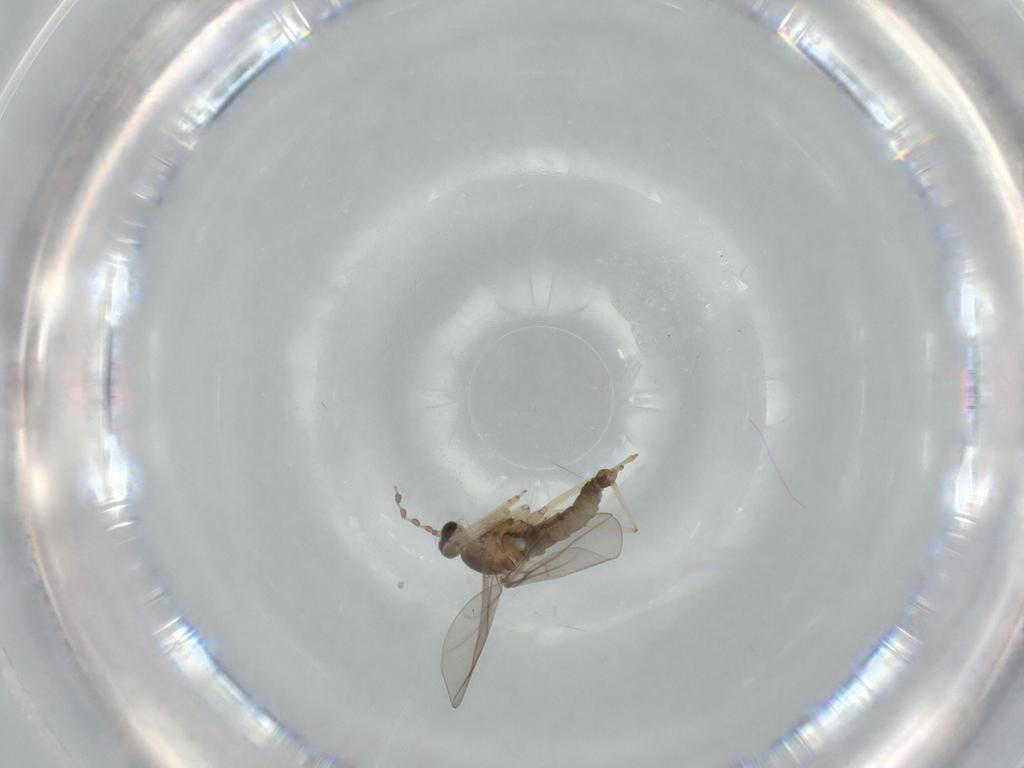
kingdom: Animalia
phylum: Arthropoda
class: Insecta
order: Diptera
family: Cecidomyiidae
